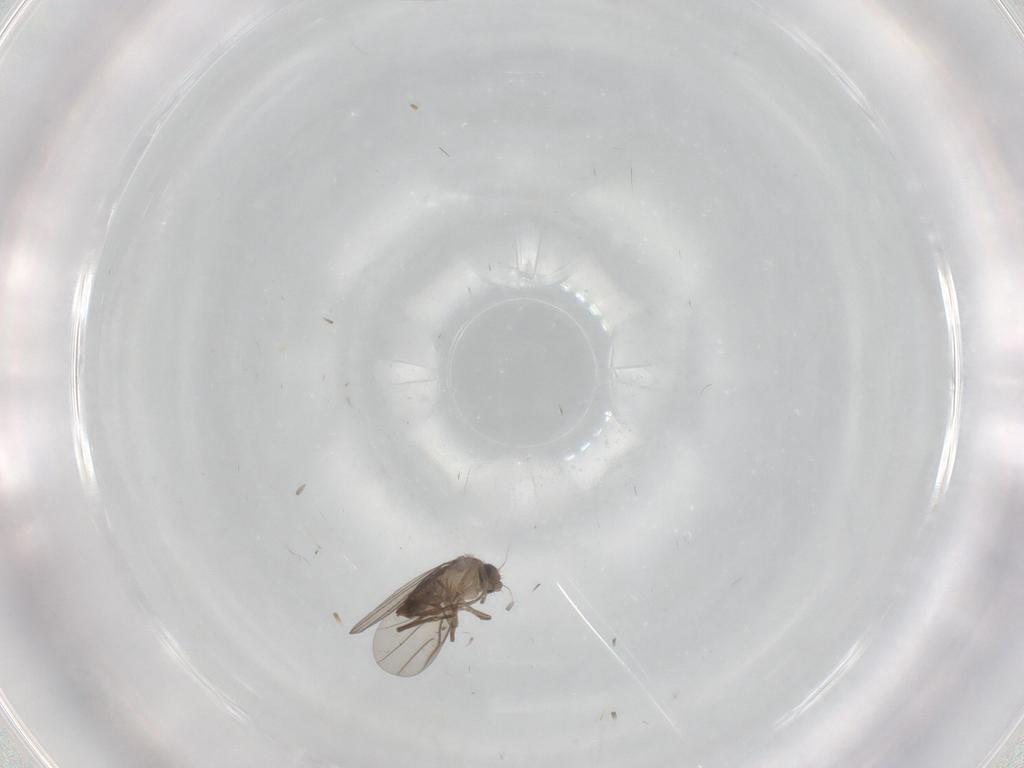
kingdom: Animalia
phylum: Arthropoda
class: Insecta
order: Diptera
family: Phoridae
